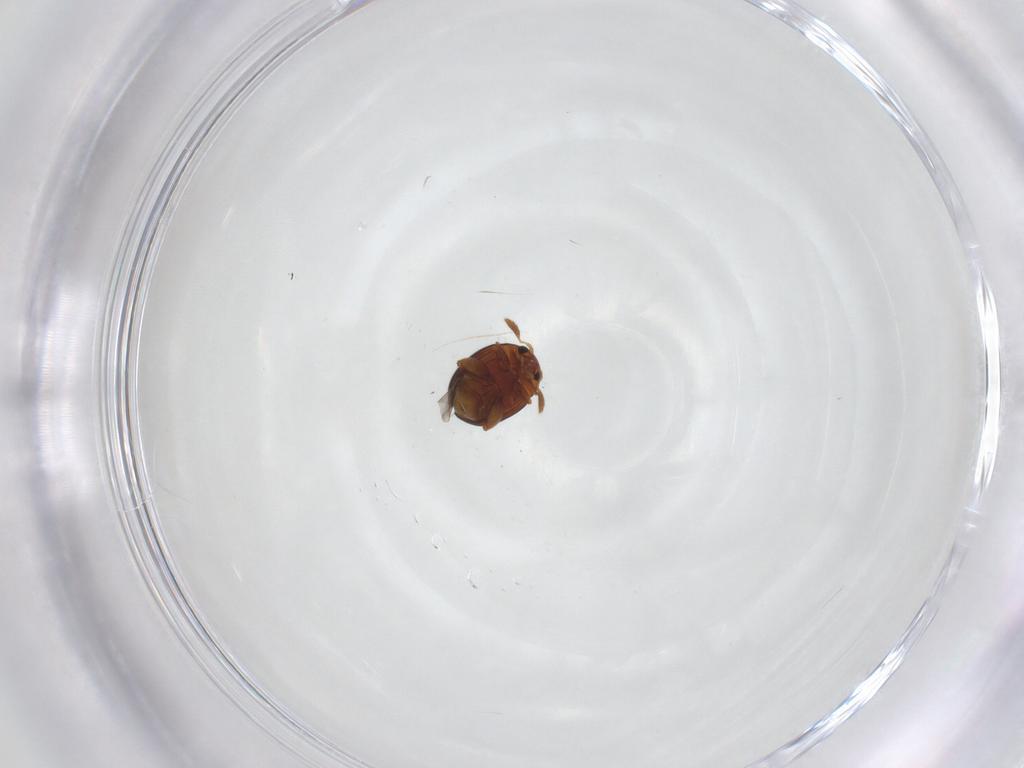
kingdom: Animalia
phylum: Arthropoda
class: Insecta
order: Coleoptera
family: Chrysomelidae
